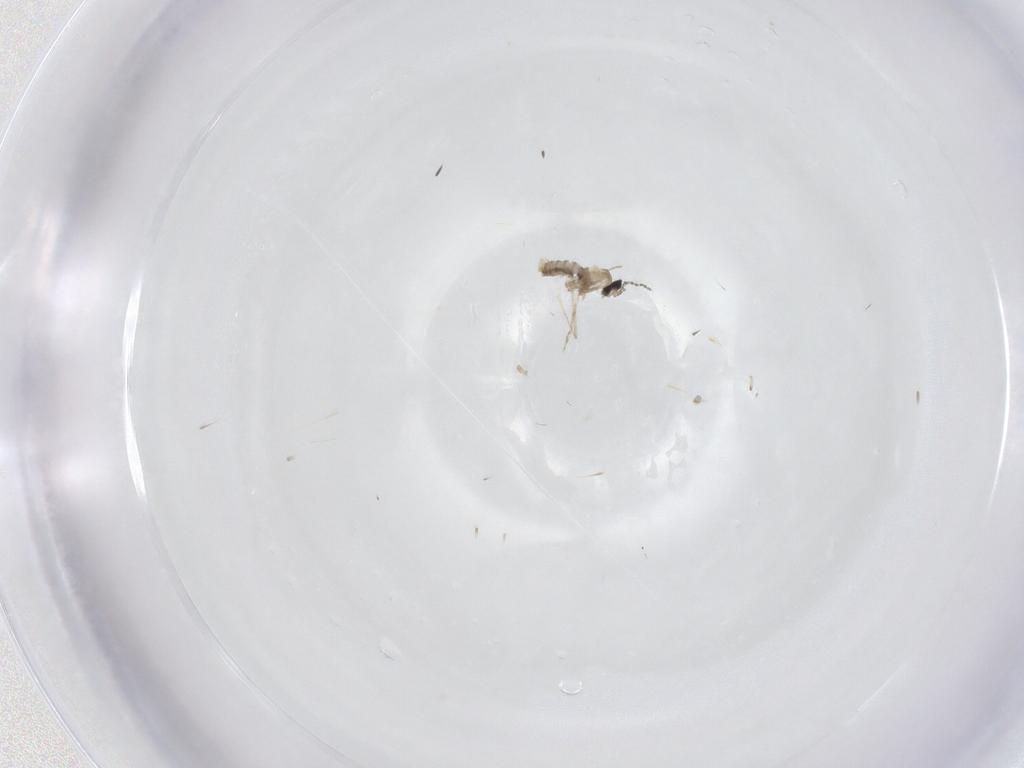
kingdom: Animalia
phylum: Arthropoda
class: Insecta
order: Diptera
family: Cecidomyiidae
